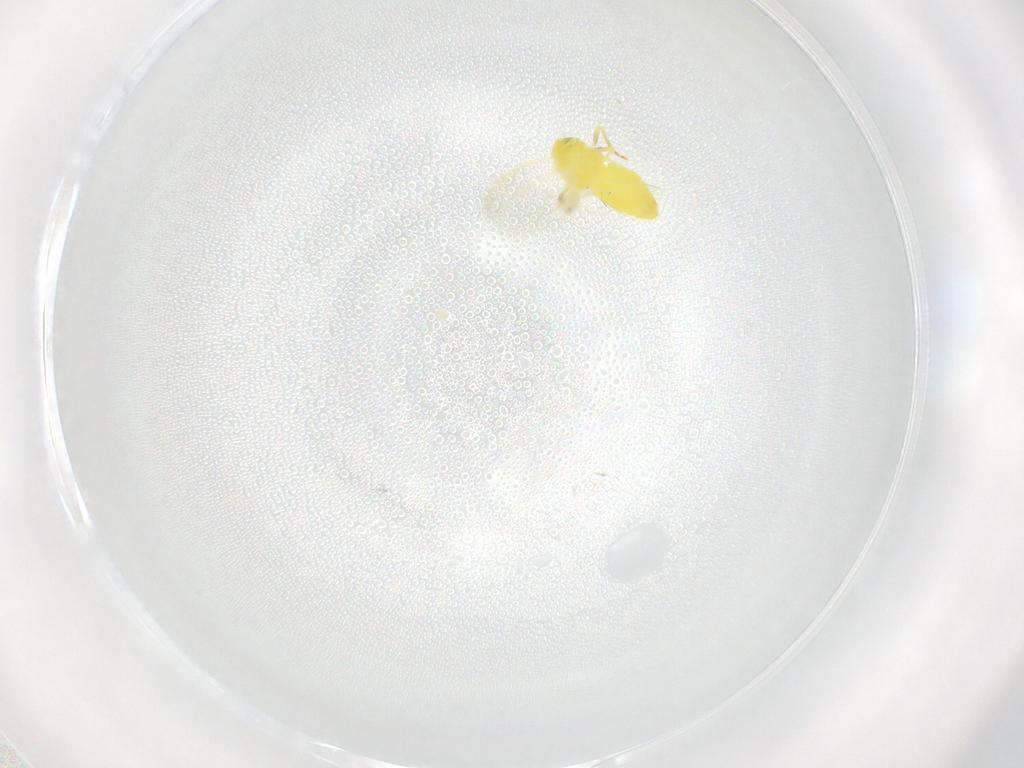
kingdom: Animalia
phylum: Arthropoda
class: Insecta
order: Hemiptera
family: Aleyrodidae
